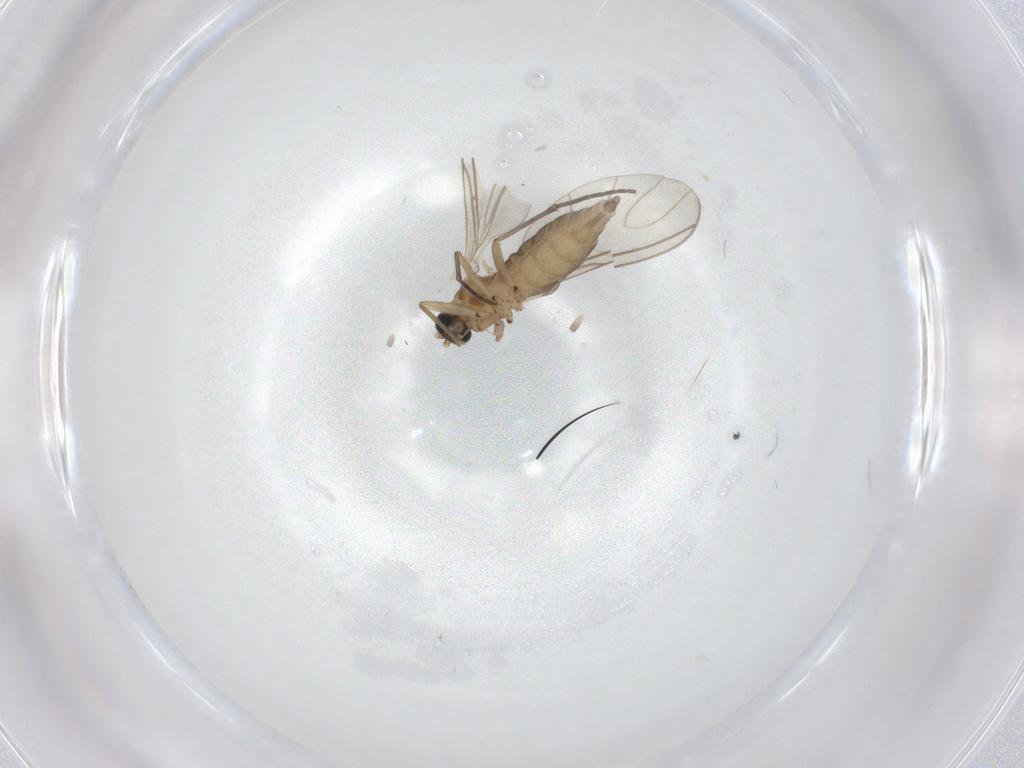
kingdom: Animalia
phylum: Arthropoda
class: Insecta
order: Diptera
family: Sciaridae
